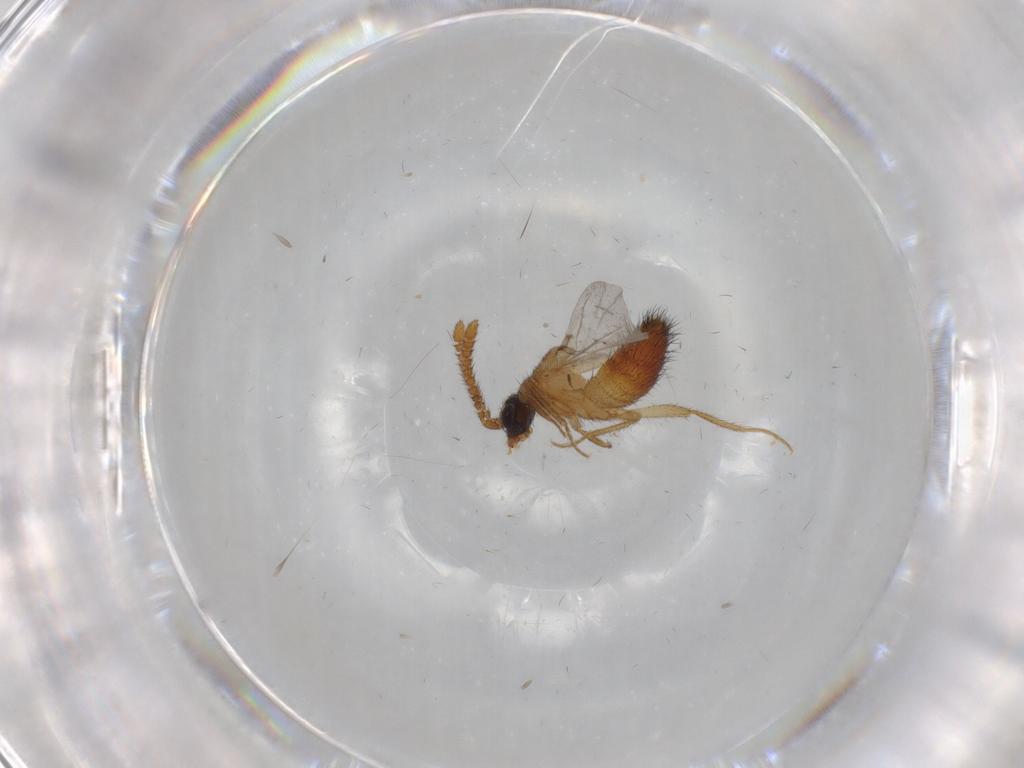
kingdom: Animalia
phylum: Arthropoda
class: Insecta
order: Coleoptera
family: Staphylinidae
